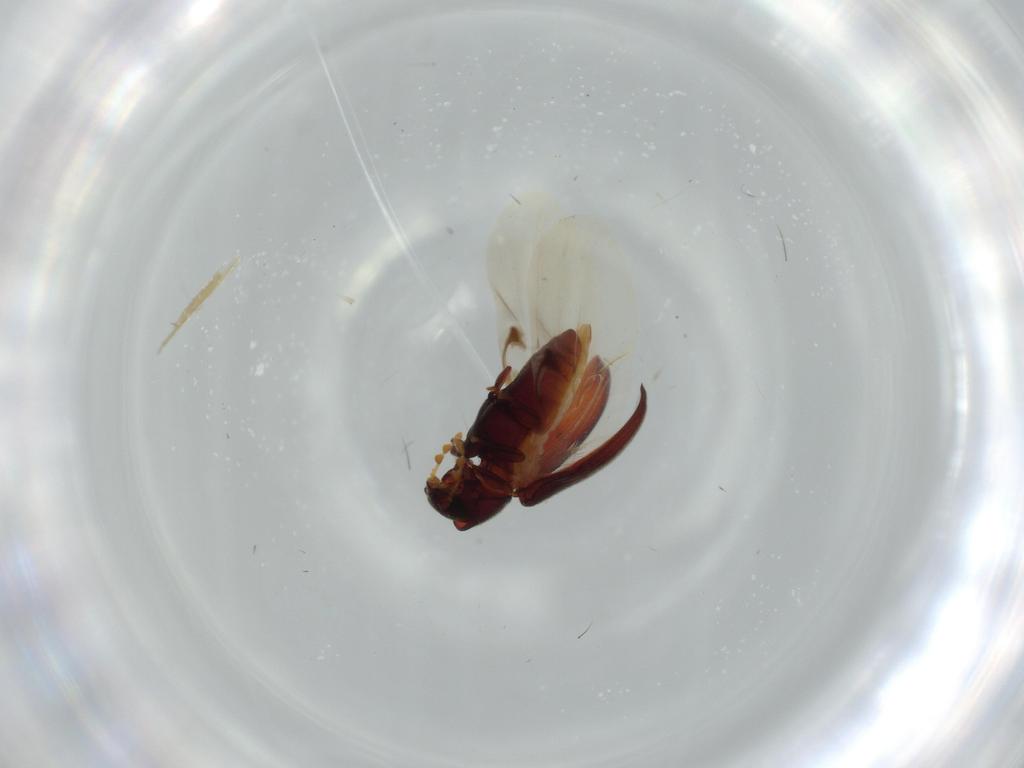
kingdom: Animalia
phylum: Arthropoda
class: Insecta
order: Coleoptera
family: Ptinidae
